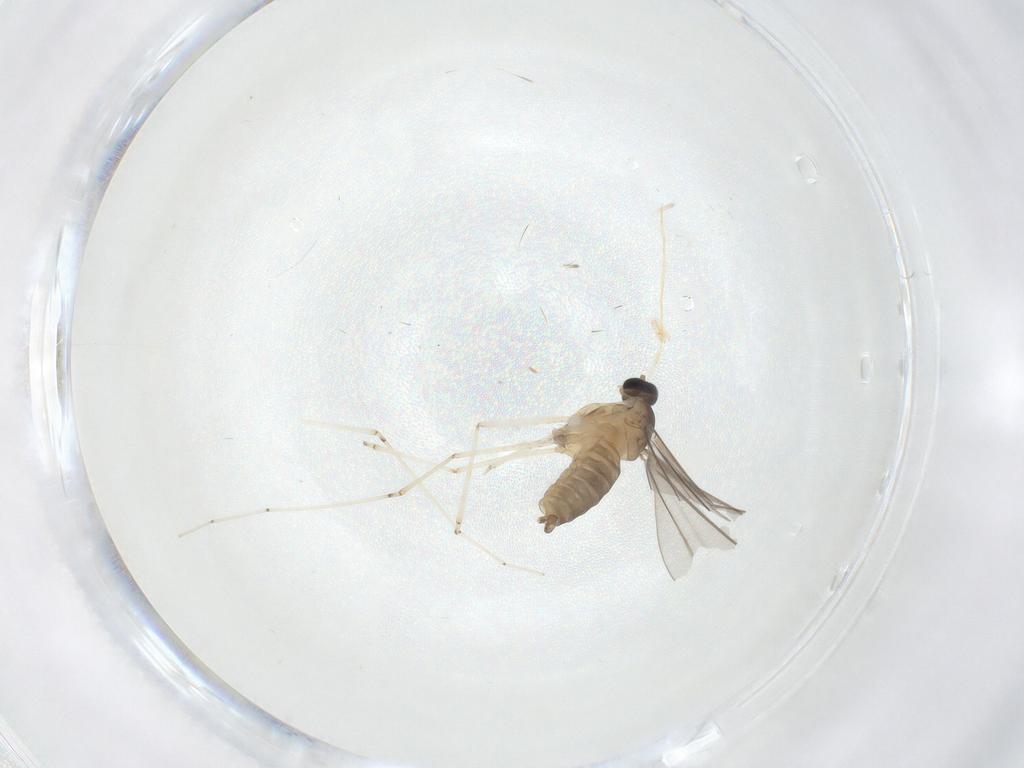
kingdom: Animalia
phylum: Arthropoda
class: Insecta
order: Diptera
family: Cecidomyiidae
